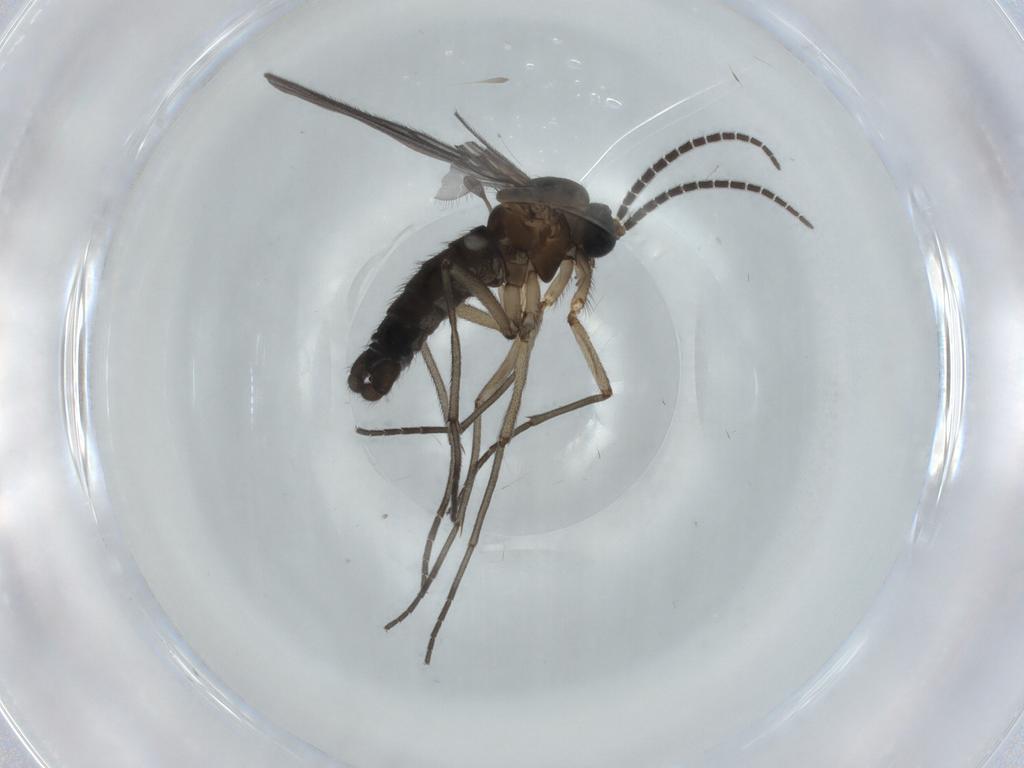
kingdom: Animalia
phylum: Arthropoda
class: Insecta
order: Diptera
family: Sciaridae
